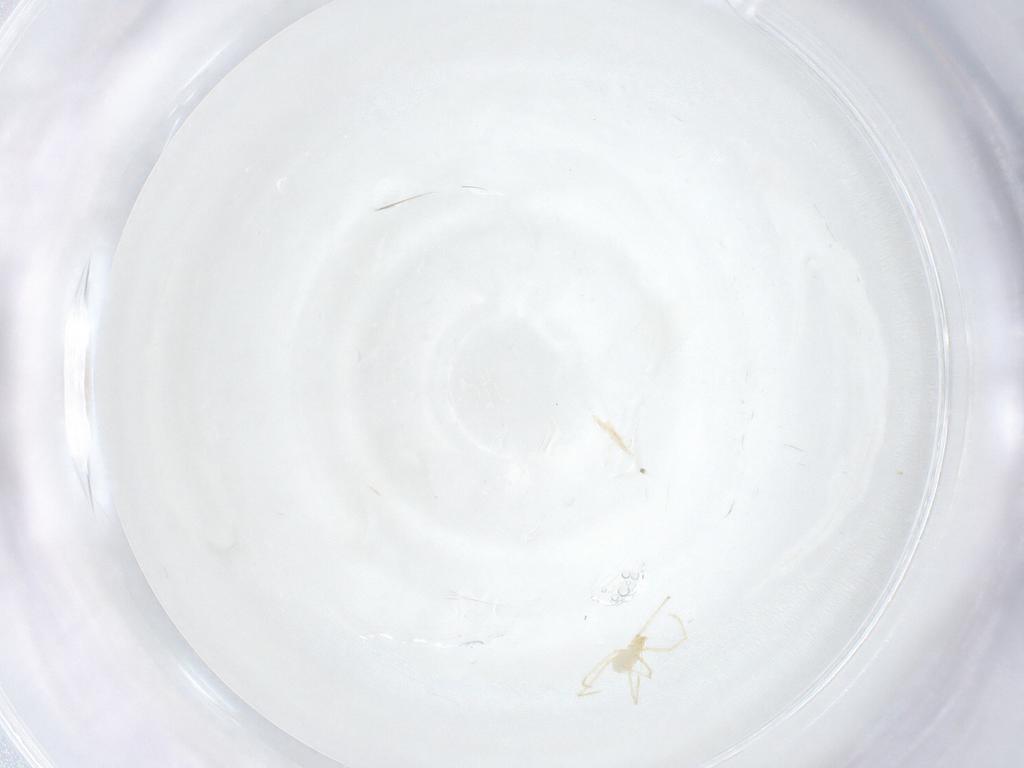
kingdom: Animalia
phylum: Arthropoda
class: Arachnida
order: Trombidiformes
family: Erythraeidae
